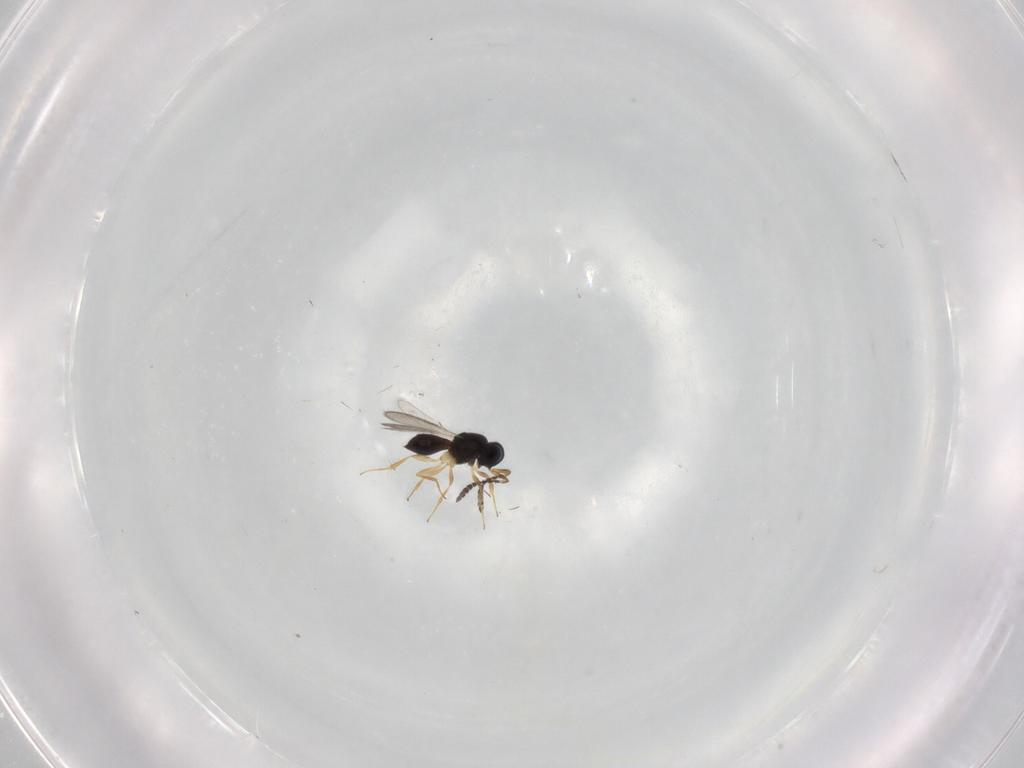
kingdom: Animalia
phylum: Arthropoda
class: Insecta
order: Hymenoptera
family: Scelionidae
